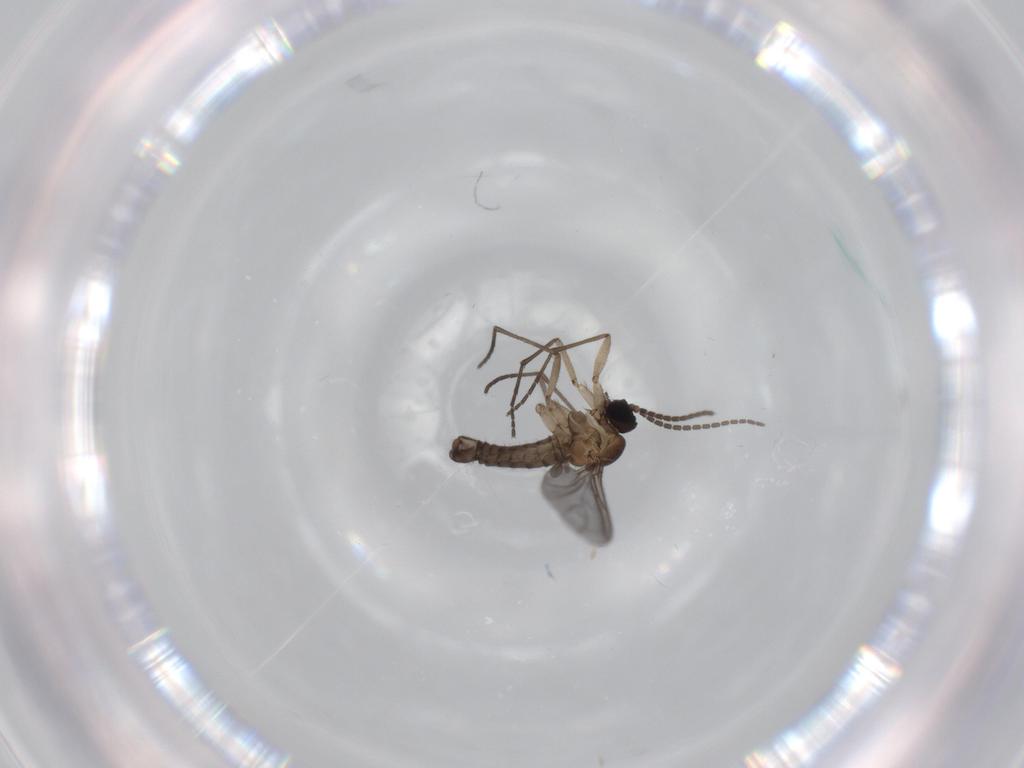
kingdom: Animalia
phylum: Arthropoda
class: Insecta
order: Diptera
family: Sciaridae
